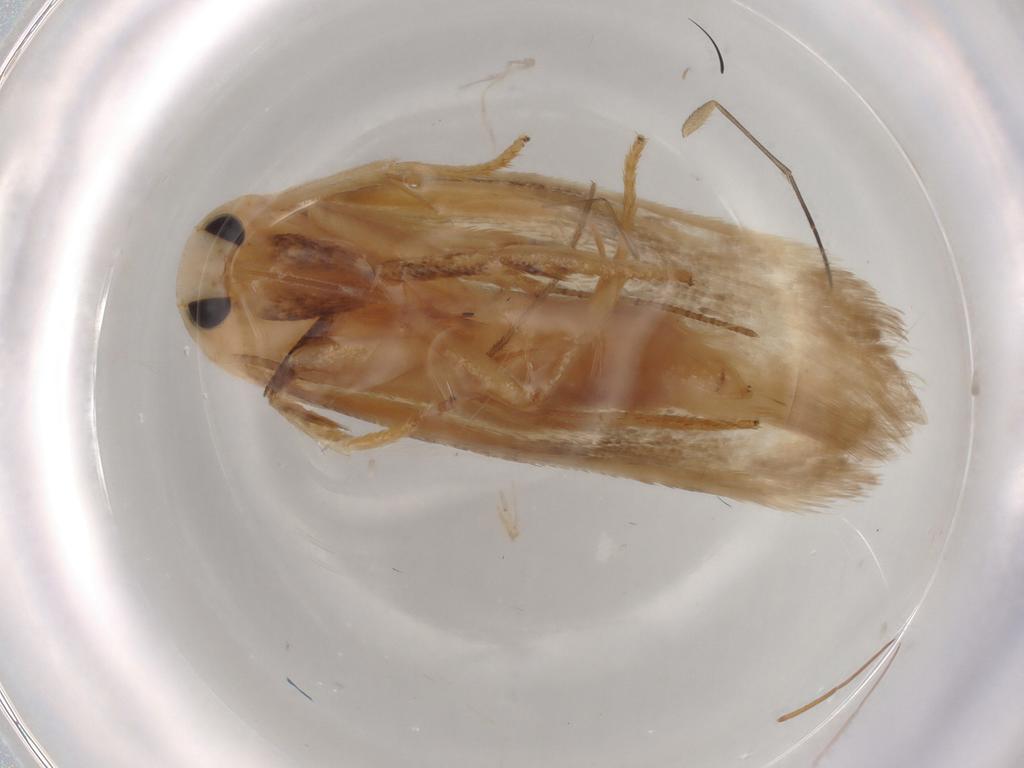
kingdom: Animalia
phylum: Arthropoda
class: Insecta
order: Lepidoptera
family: Geometridae
